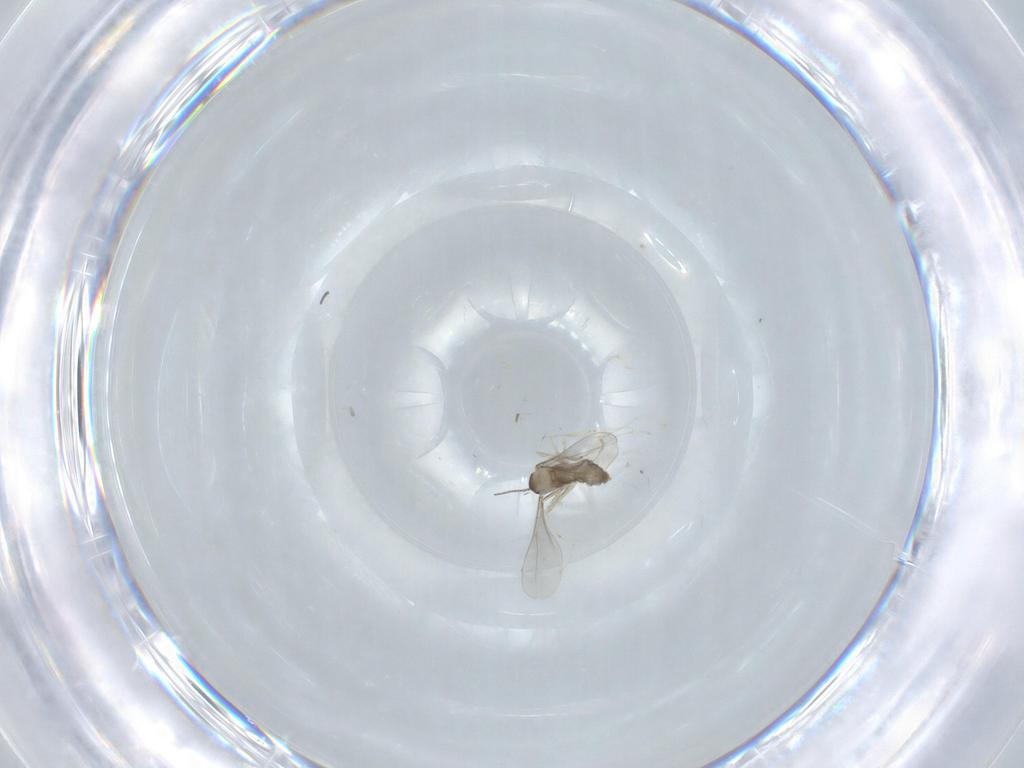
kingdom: Animalia
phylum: Arthropoda
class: Insecta
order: Diptera
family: Cecidomyiidae
